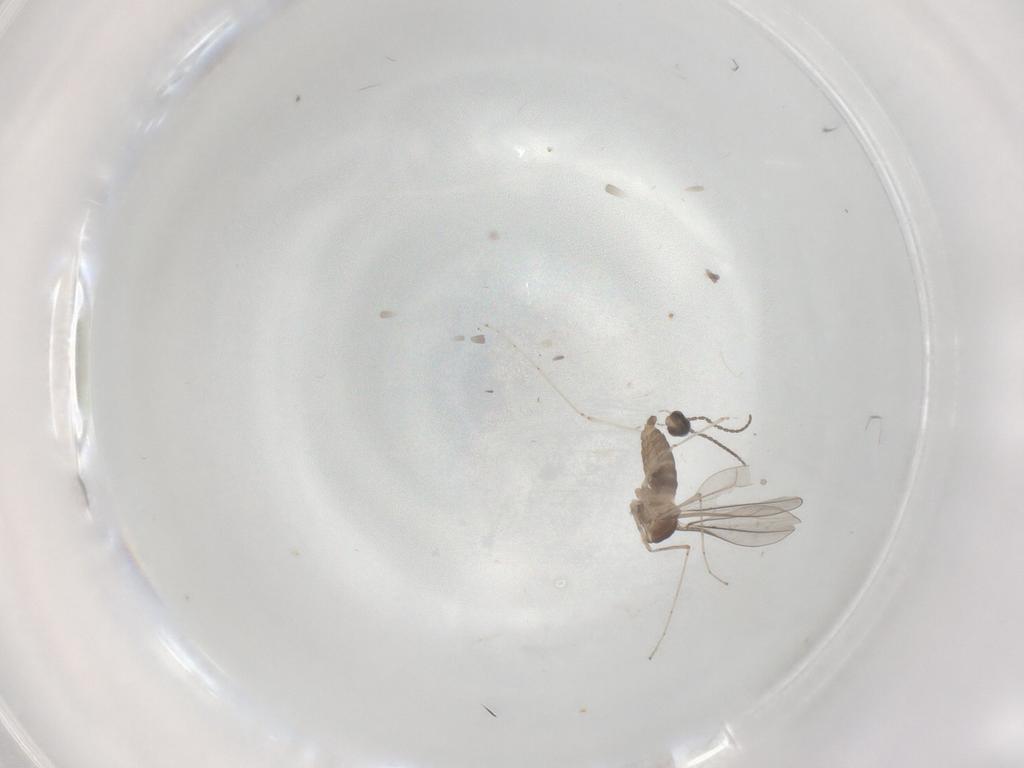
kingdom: Animalia
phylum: Arthropoda
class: Insecta
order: Diptera
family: Cecidomyiidae
